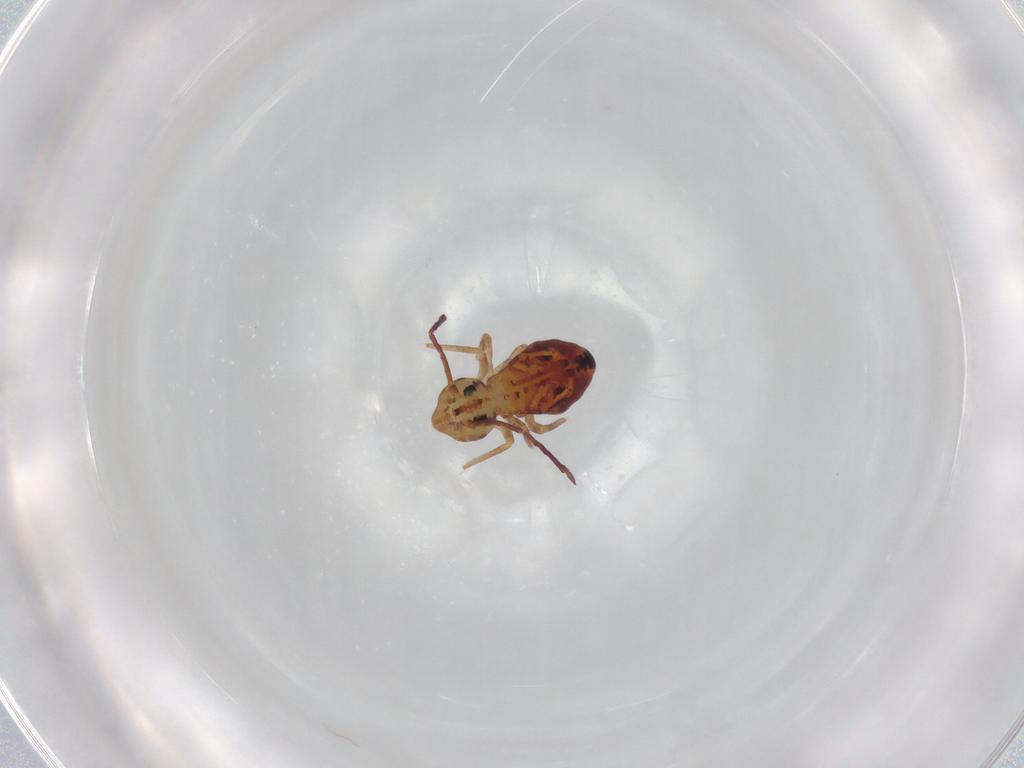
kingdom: Animalia
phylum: Arthropoda
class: Collembola
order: Symphypleona
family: Dicyrtomidae
